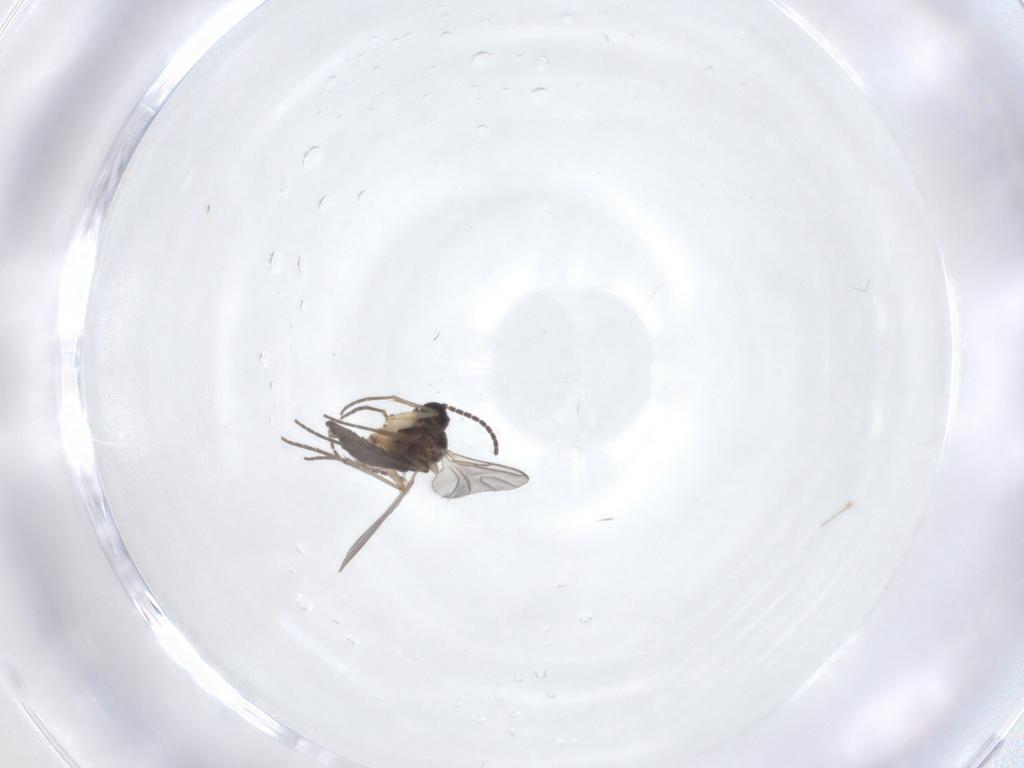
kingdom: Animalia
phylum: Arthropoda
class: Insecta
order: Diptera
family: Sciaridae
